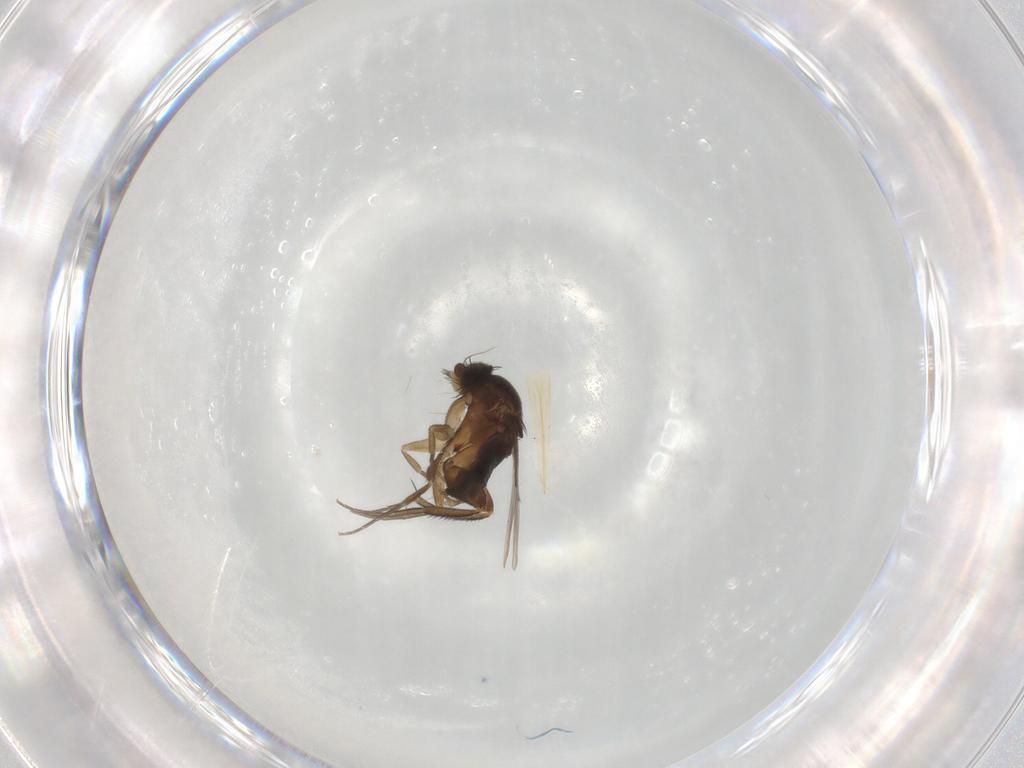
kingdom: Animalia
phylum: Arthropoda
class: Insecta
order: Diptera
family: Phoridae
